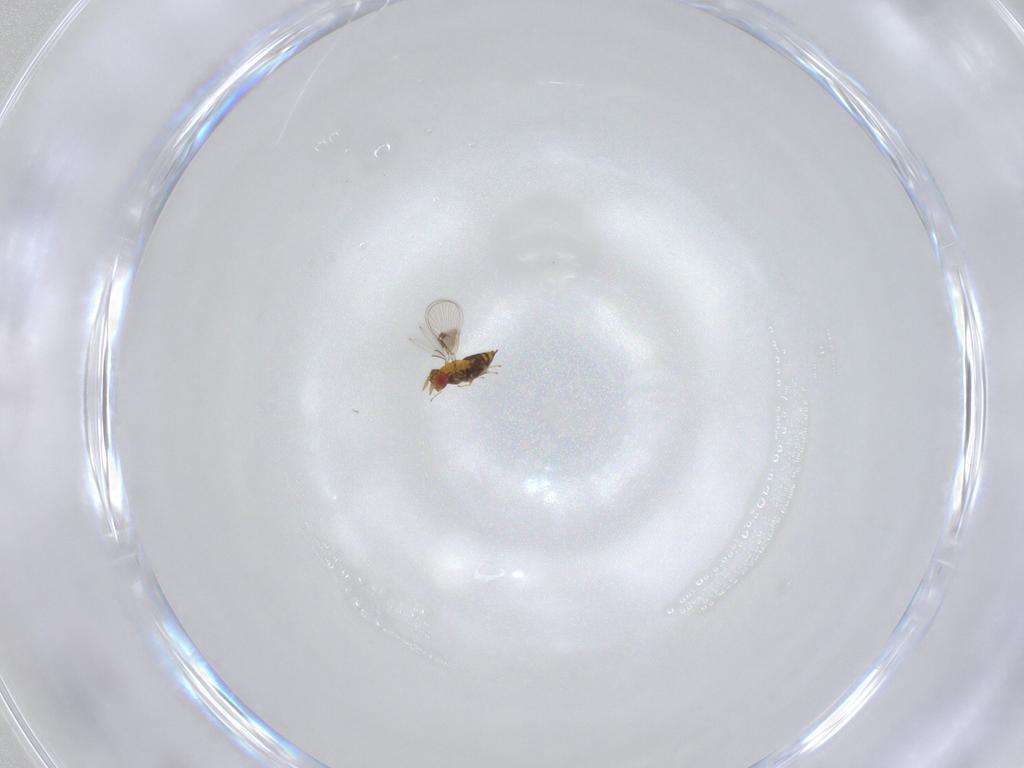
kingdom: Animalia
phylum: Arthropoda
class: Insecta
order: Hymenoptera
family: Trichogrammatidae
